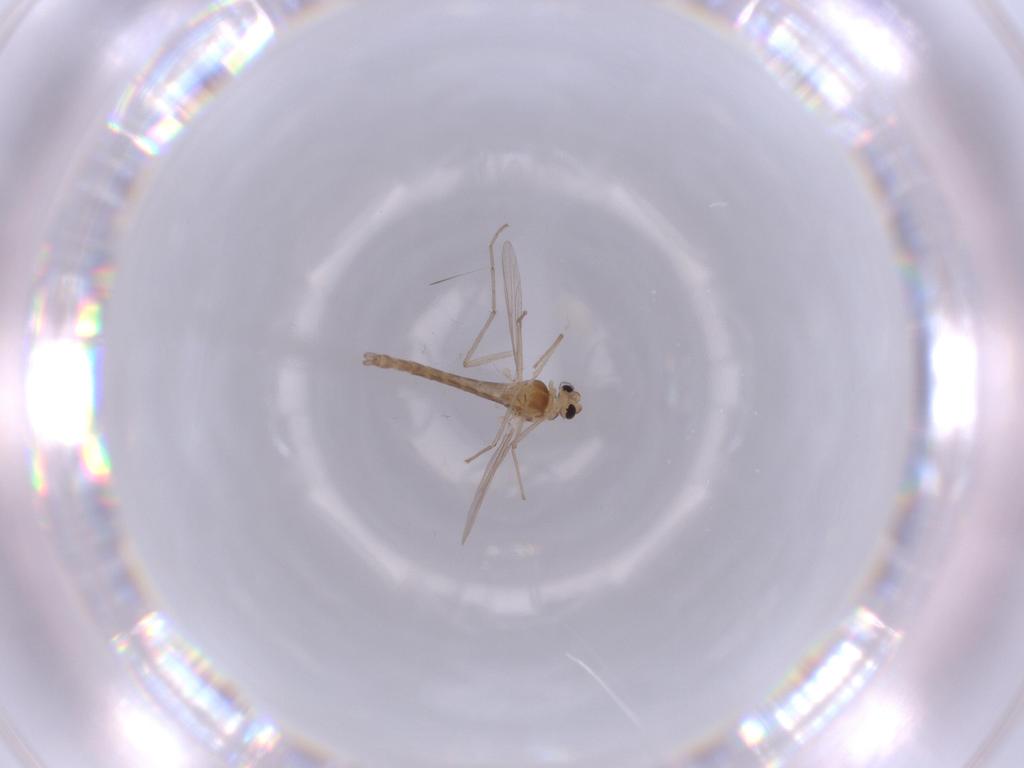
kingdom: Animalia
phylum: Arthropoda
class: Insecta
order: Diptera
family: Chironomidae
